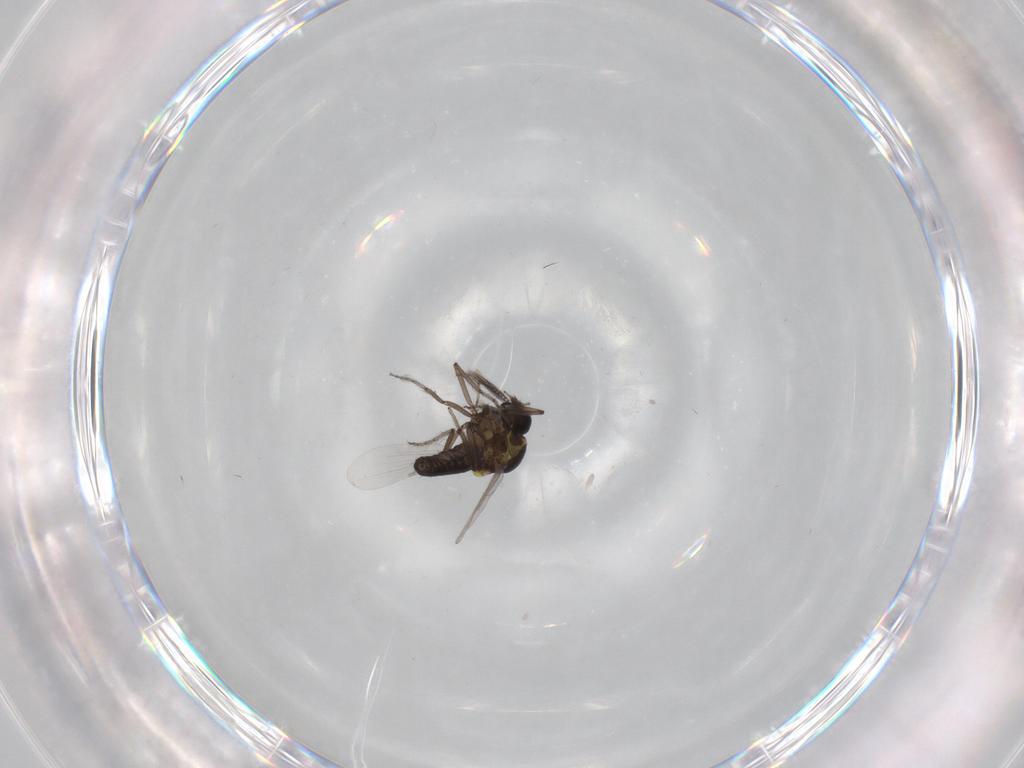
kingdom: Animalia
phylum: Arthropoda
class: Insecta
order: Diptera
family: Ceratopogonidae
